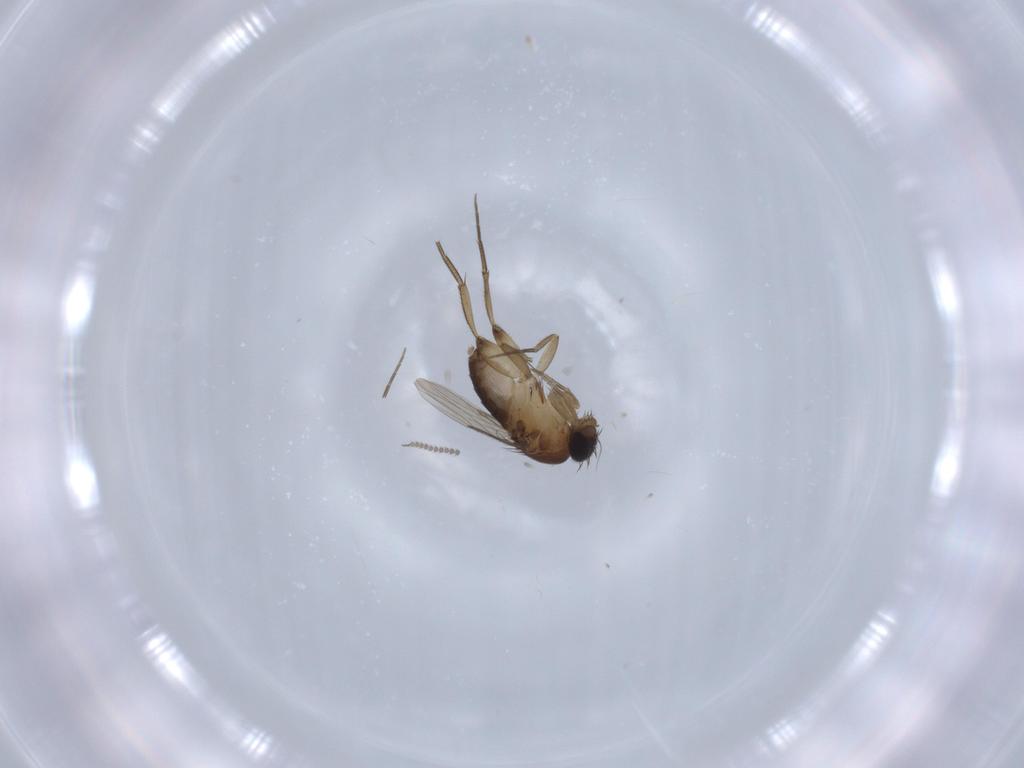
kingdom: Animalia
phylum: Arthropoda
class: Insecta
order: Diptera
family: Phoridae
